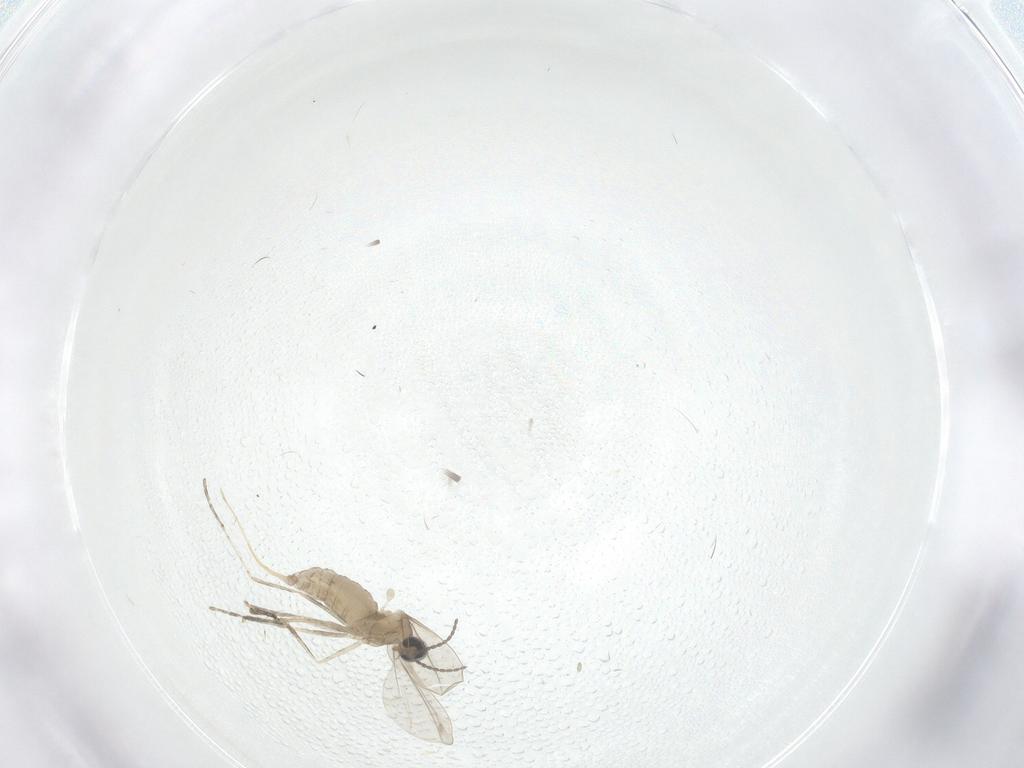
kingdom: Animalia
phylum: Arthropoda
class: Insecta
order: Diptera
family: Cecidomyiidae
